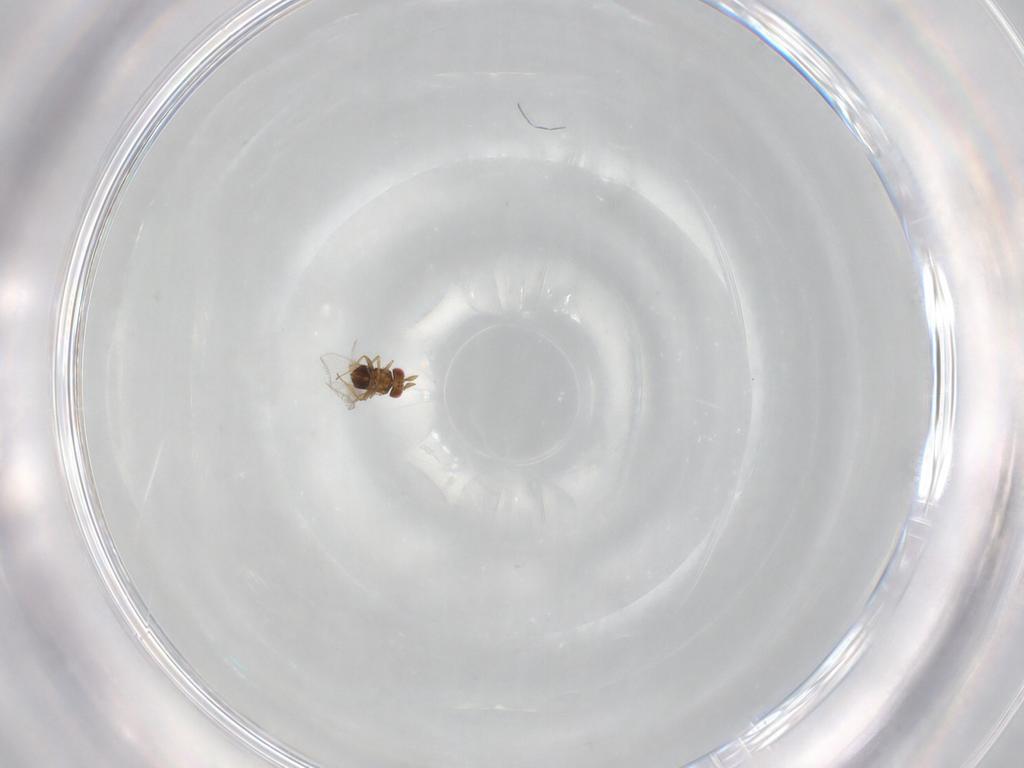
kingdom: Animalia
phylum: Arthropoda
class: Insecta
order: Hymenoptera
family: Trichogrammatidae
